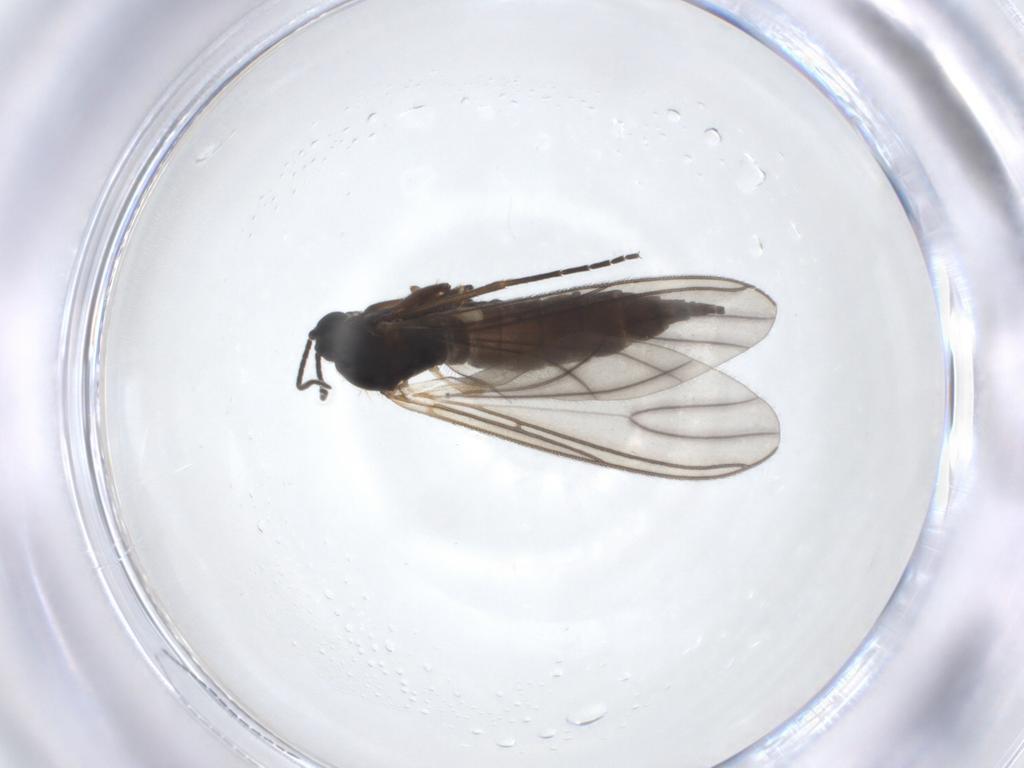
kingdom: Animalia
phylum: Arthropoda
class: Insecta
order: Diptera
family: Sciaridae
